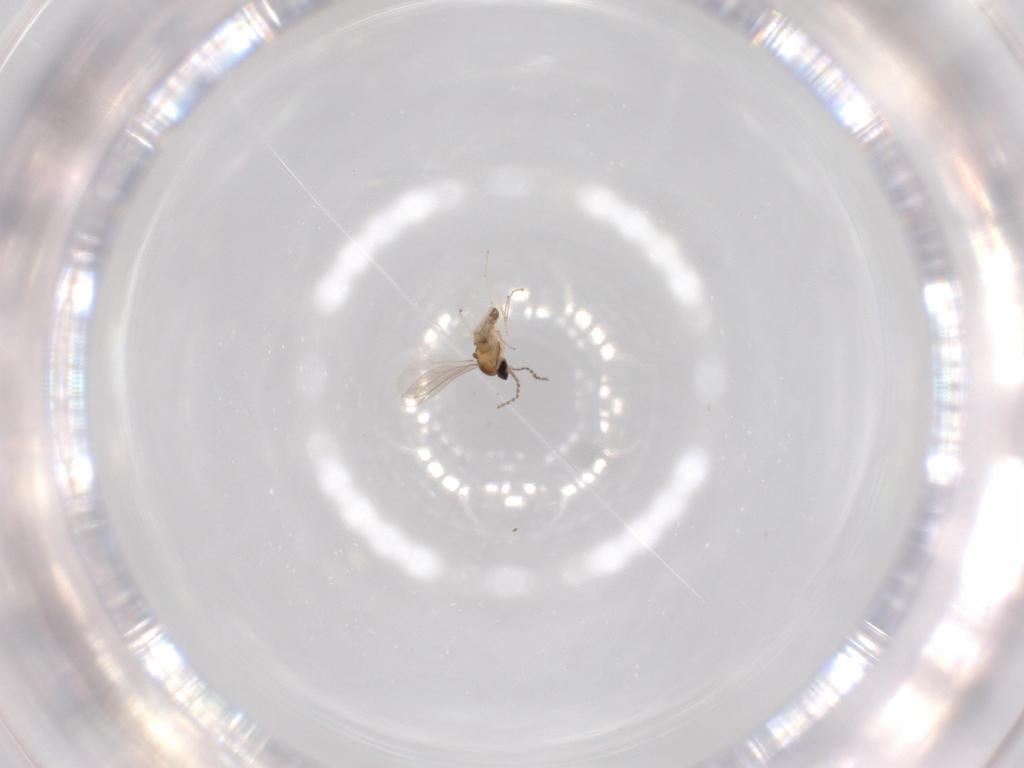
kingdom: Animalia
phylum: Arthropoda
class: Insecta
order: Diptera
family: Cecidomyiidae
